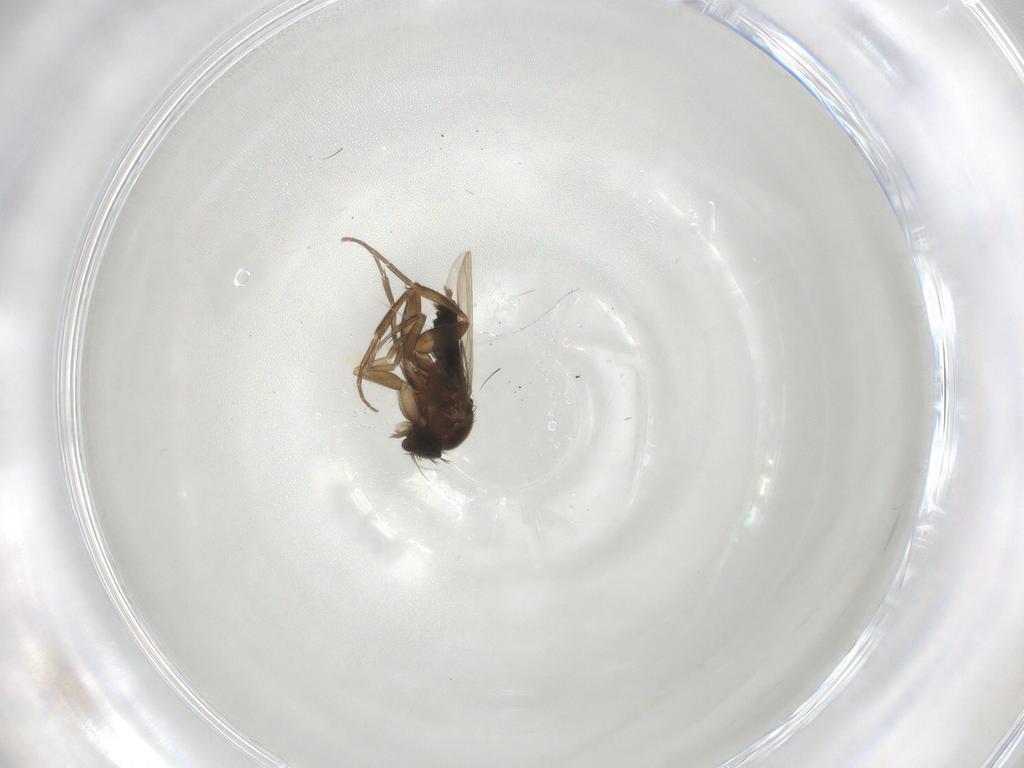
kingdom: Animalia
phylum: Arthropoda
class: Insecta
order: Diptera
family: Phoridae
